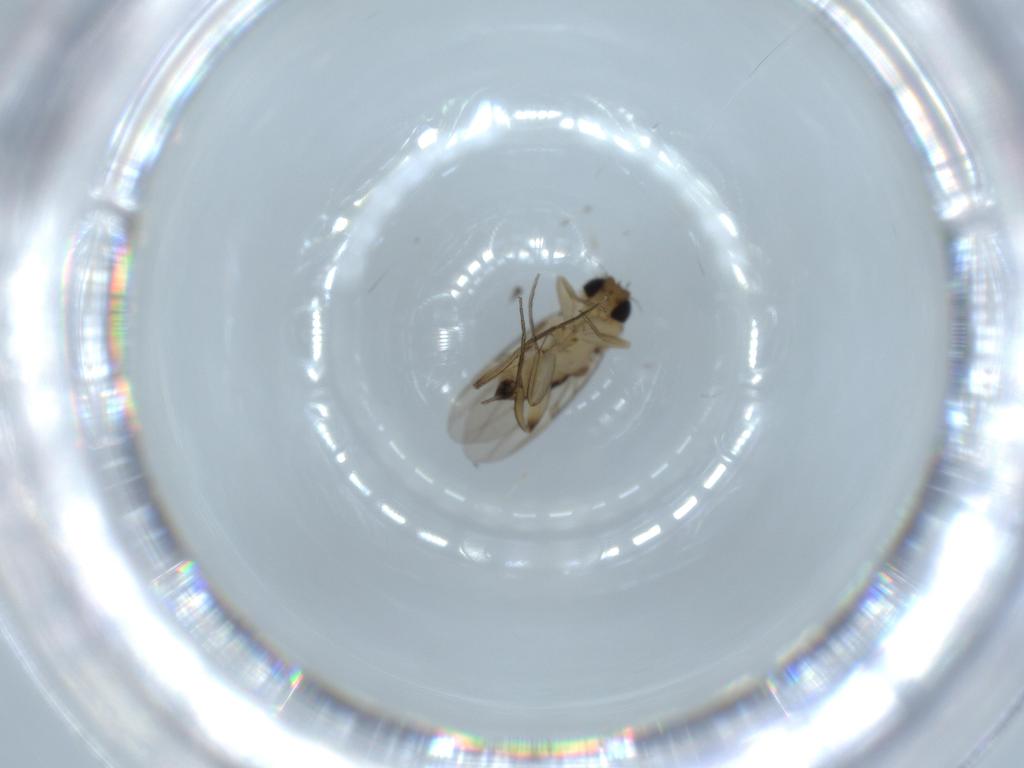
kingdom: Animalia
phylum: Arthropoda
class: Insecta
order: Diptera
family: Phoridae
